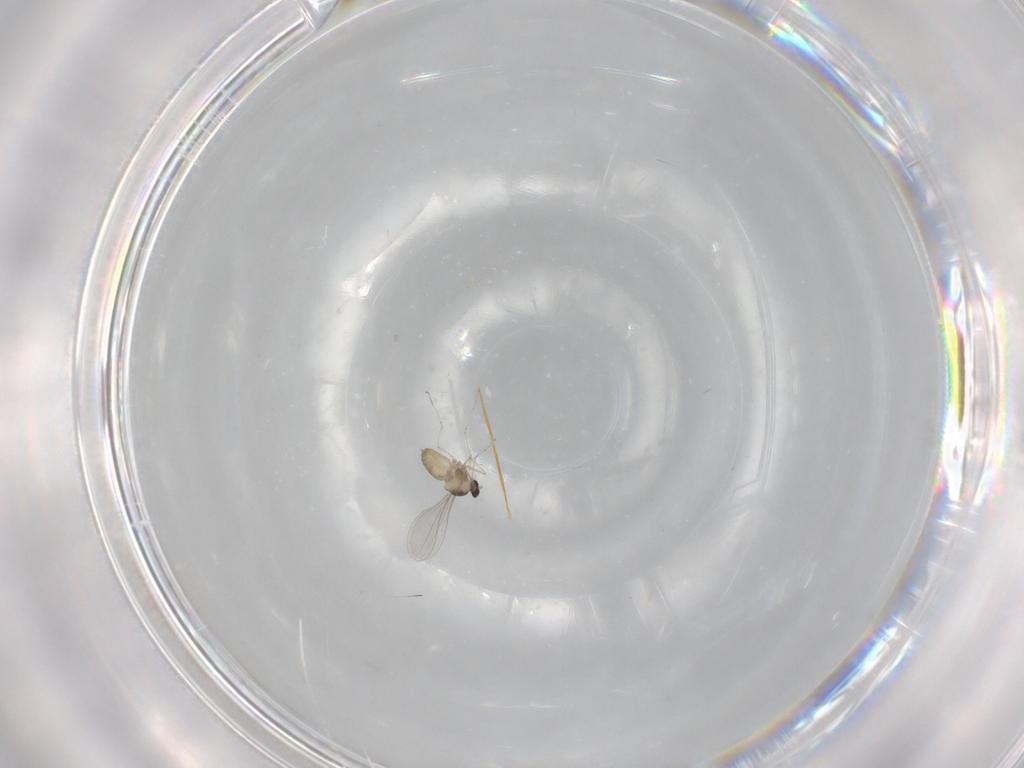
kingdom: Animalia
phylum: Arthropoda
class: Insecta
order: Diptera
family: Cecidomyiidae
